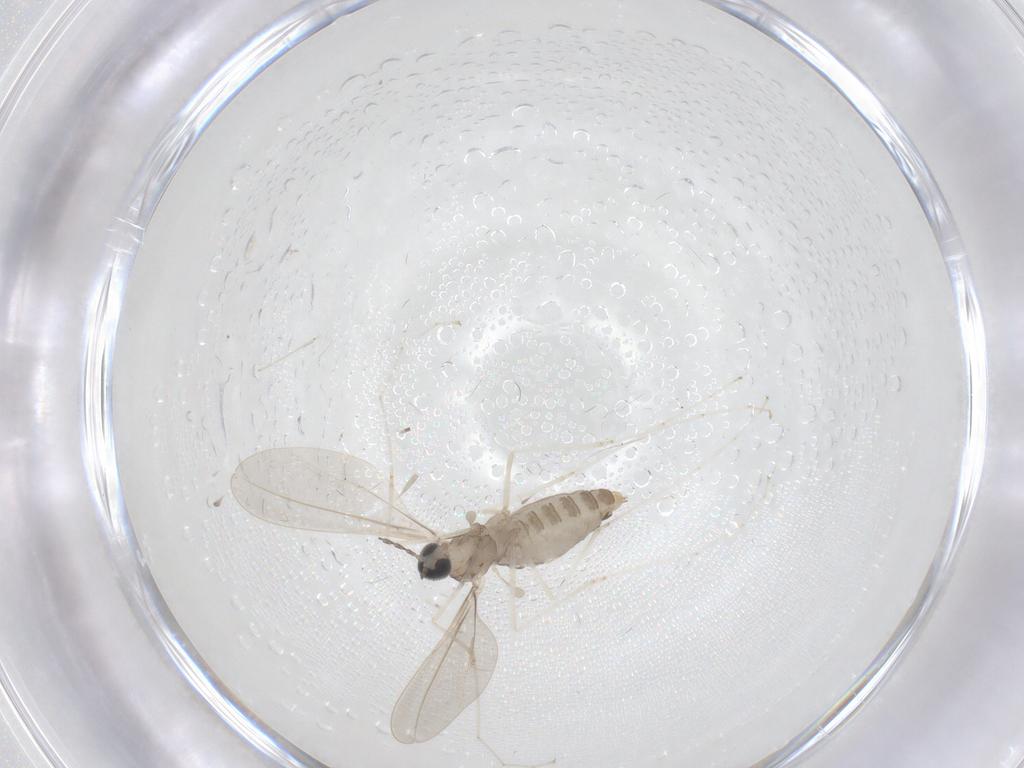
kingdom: Animalia
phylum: Arthropoda
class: Insecta
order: Diptera
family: Cecidomyiidae
